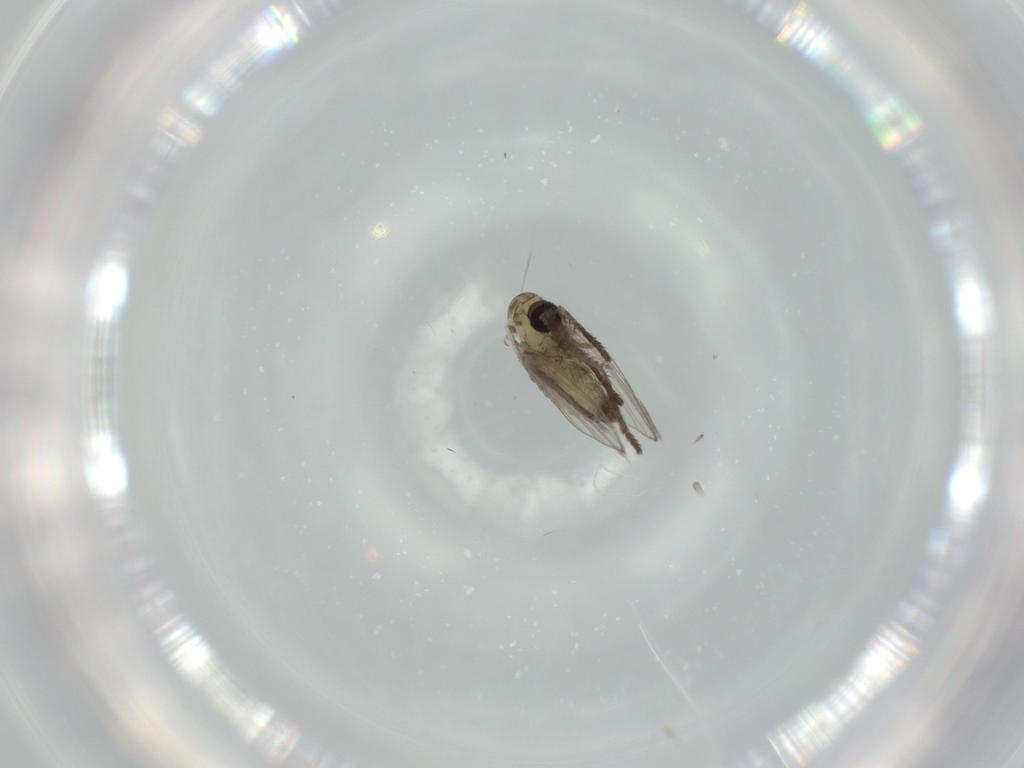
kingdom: Animalia
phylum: Arthropoda
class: Insecta
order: Diptera
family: Psychodidae
